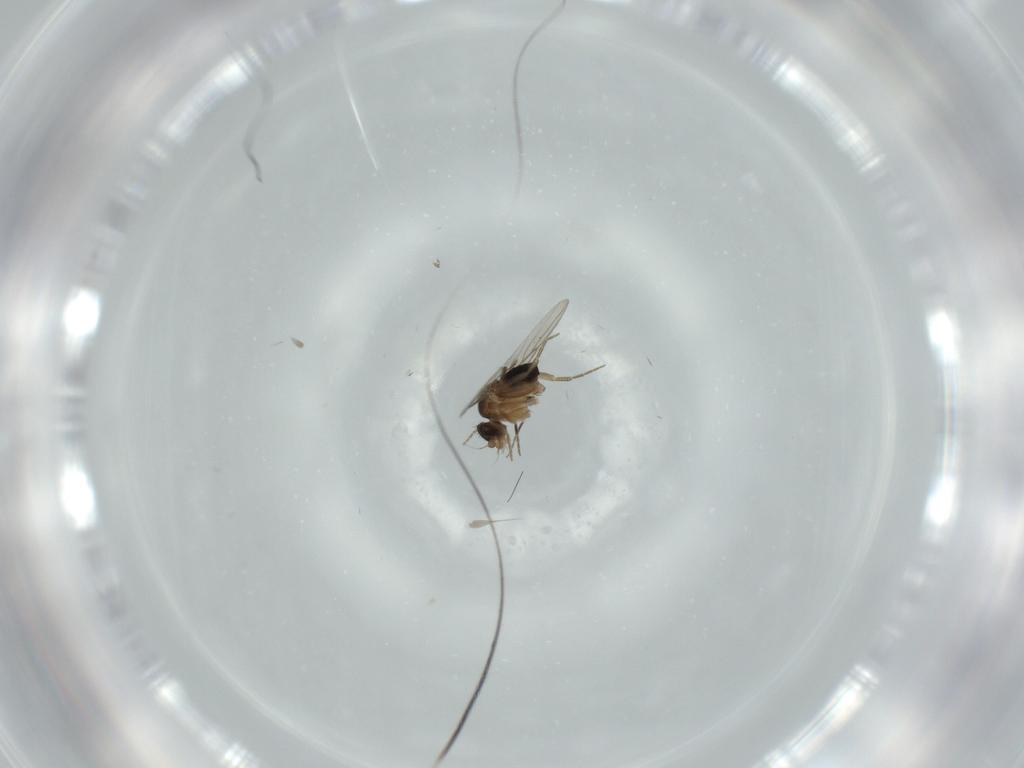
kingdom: Animalia
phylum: Arthropoda
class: Insecta
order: Diptera
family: Phoridae
